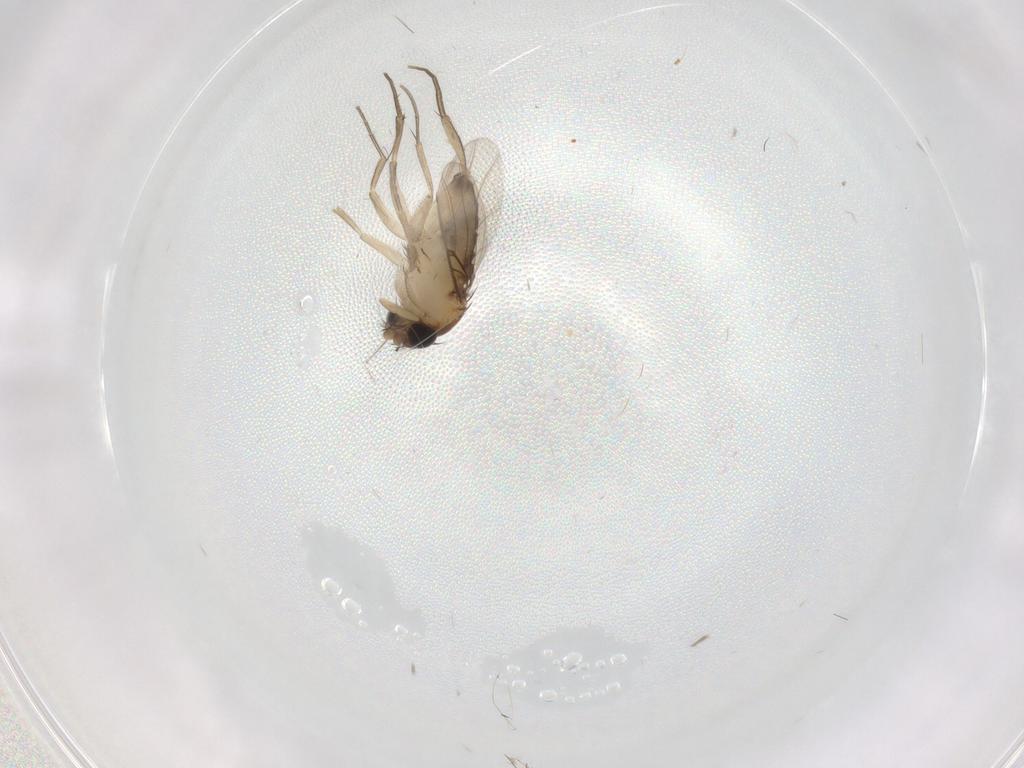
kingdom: Animalia
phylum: Arthropoda
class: Insecta
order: Diptera
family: Phoridae
